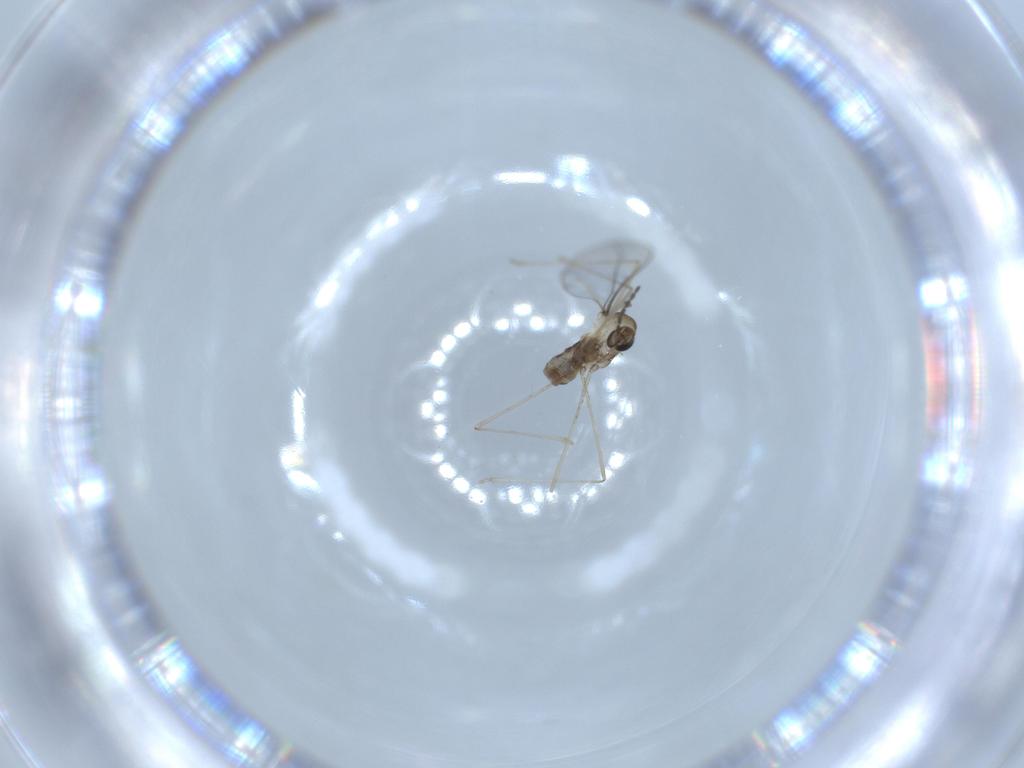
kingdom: Animalia
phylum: Arthropoda
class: Insecta
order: Diptera
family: Cecidomyiidae
